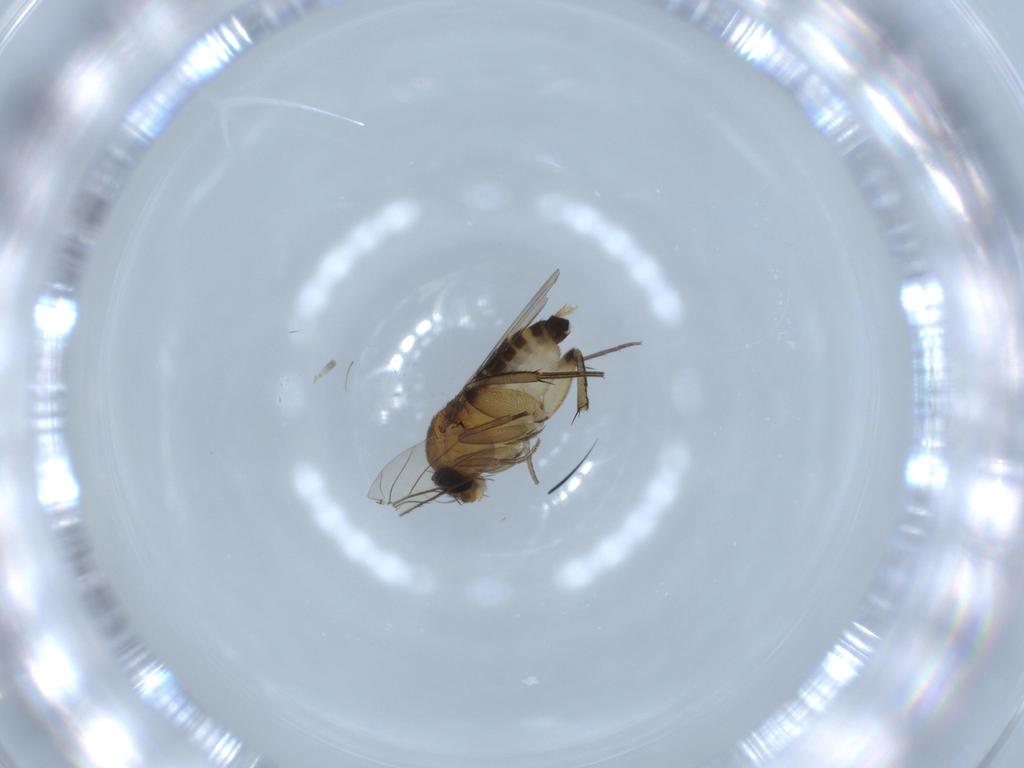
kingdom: Animalia
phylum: Arthropoda
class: Insecta
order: Diptera
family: Phoridae
